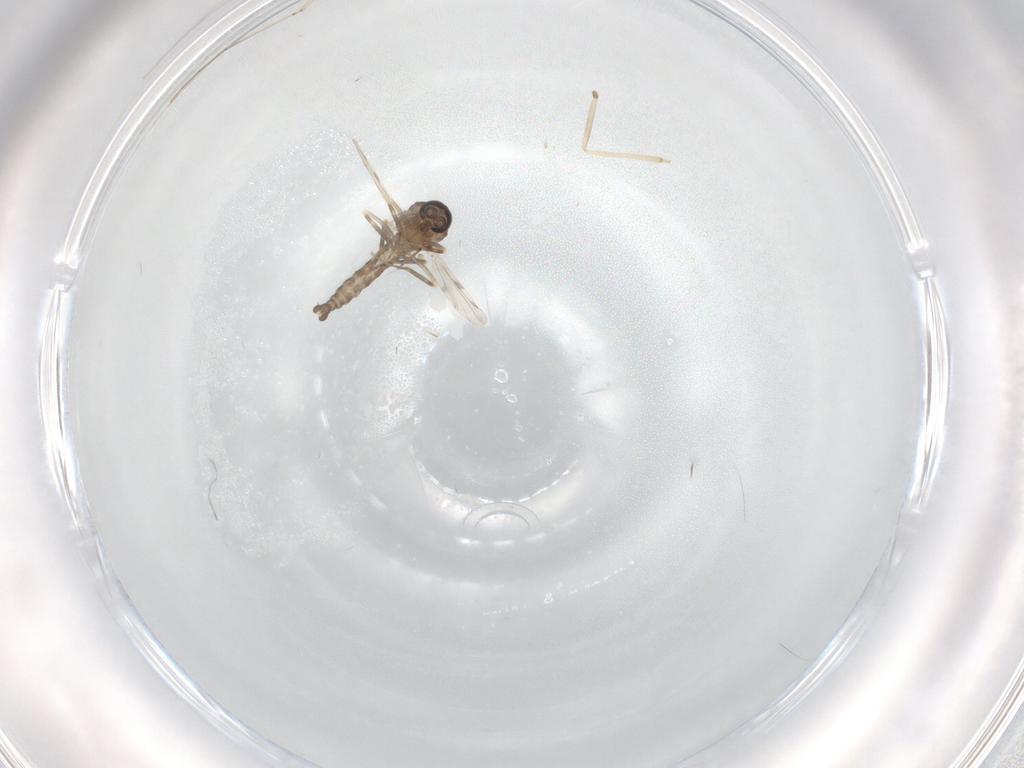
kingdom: Animalia
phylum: Arthropoda
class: Insecta
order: Diptera
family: Ceratopogonidae
